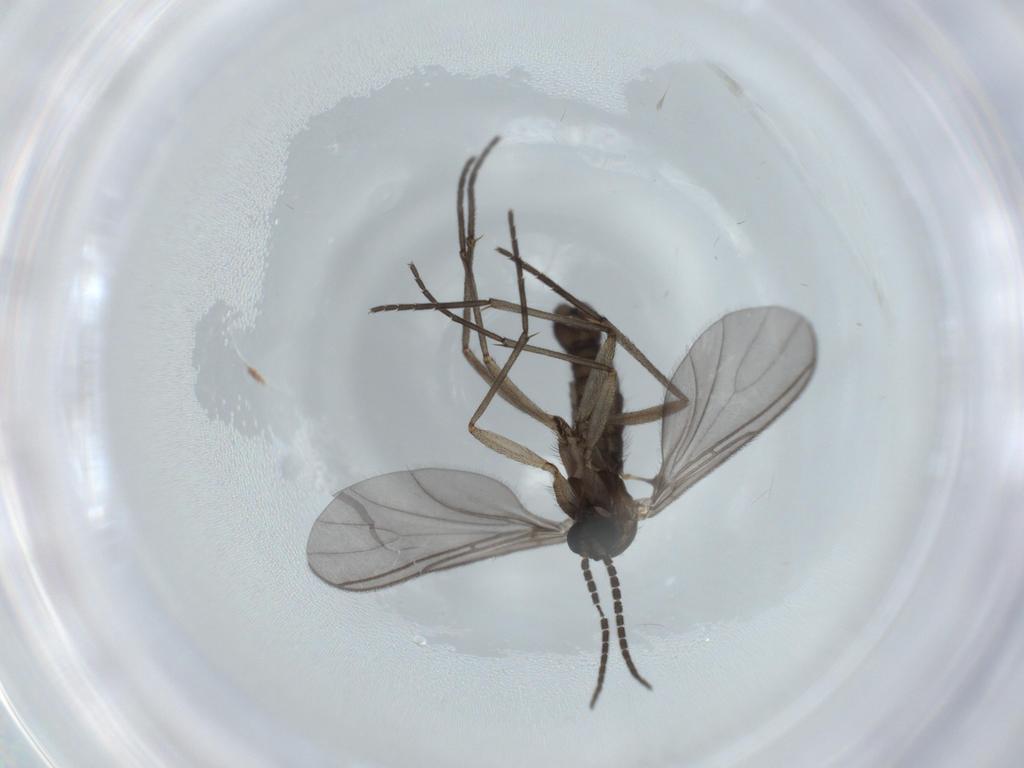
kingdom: Animalia
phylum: Arthropoda
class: Insecta
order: Diptera
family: Sciaridae
